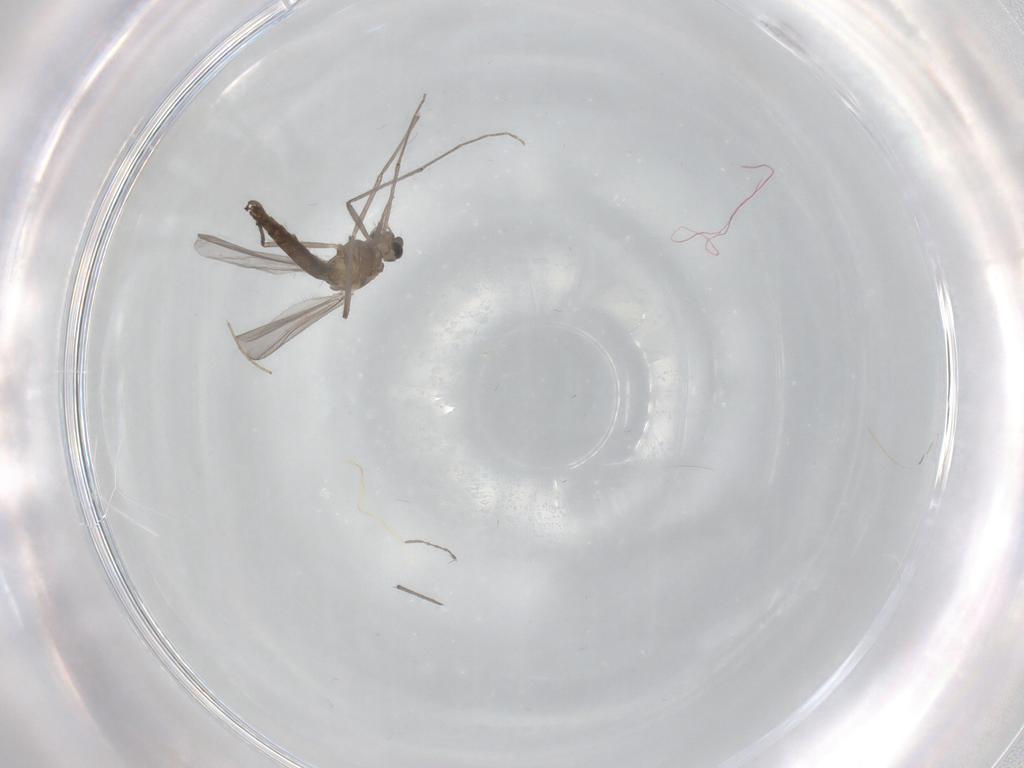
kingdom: Animalia
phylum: Arthropoda
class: Insecta
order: Diptera
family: Chironomidae
